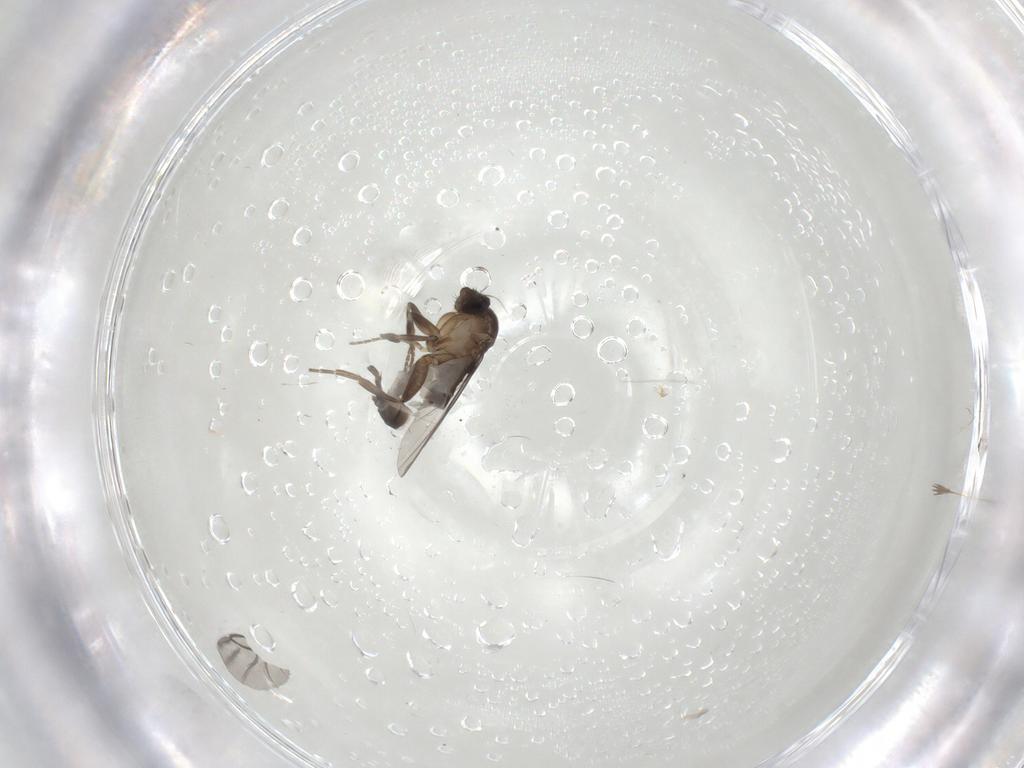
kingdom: Animalia
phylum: Arthropoda
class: Insecta
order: Diptera
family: Phoridae
